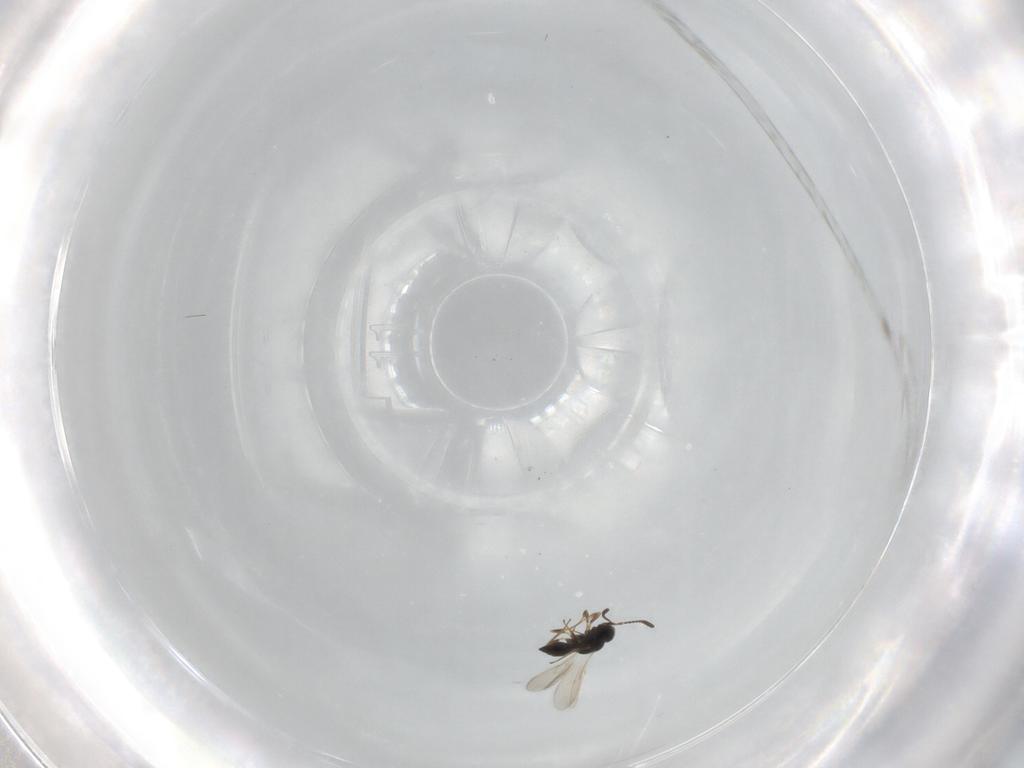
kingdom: Animalia
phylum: Arthropoda
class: Insecta
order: Hymenoptera
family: Scelionidae
